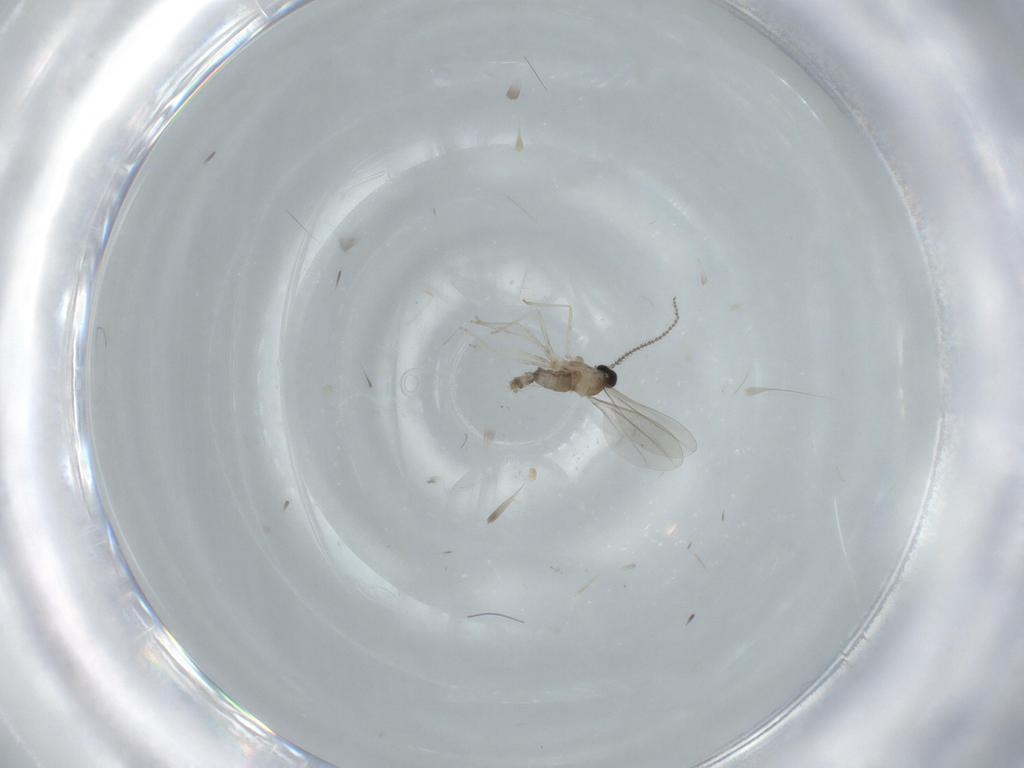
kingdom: Animalia
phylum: Arthropoda
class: Insecta
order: Diptera
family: Cecidomyiidae
